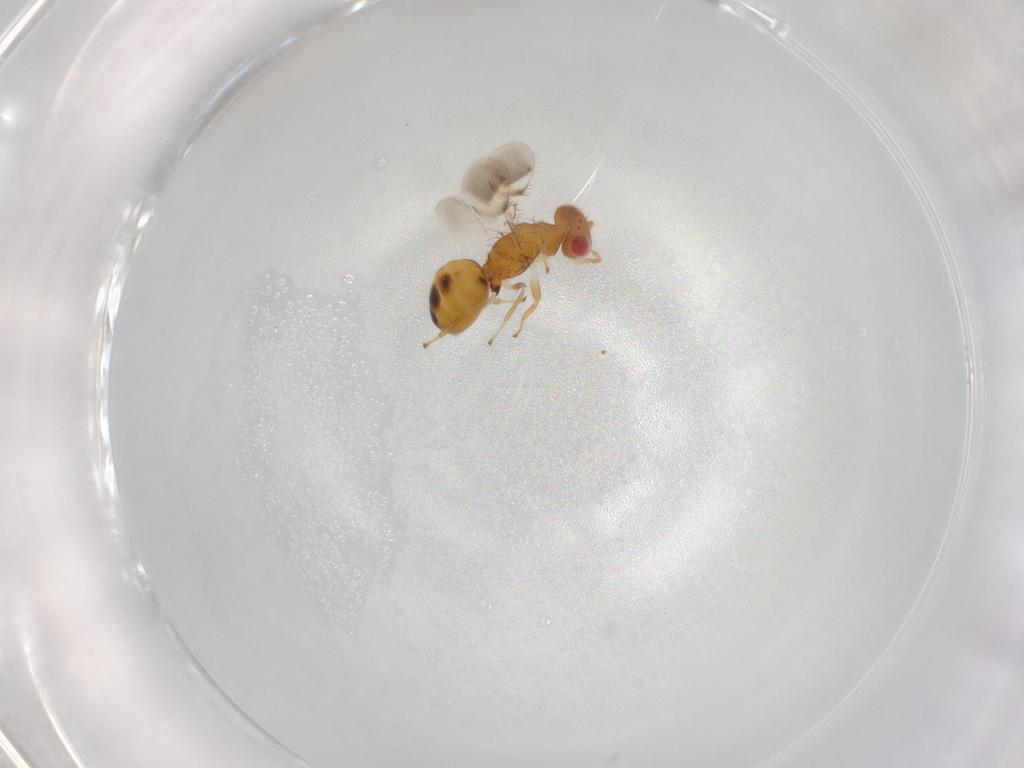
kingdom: Animalia
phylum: Arthropoda
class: Insecta
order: Hymenoptera
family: Eulophidae
